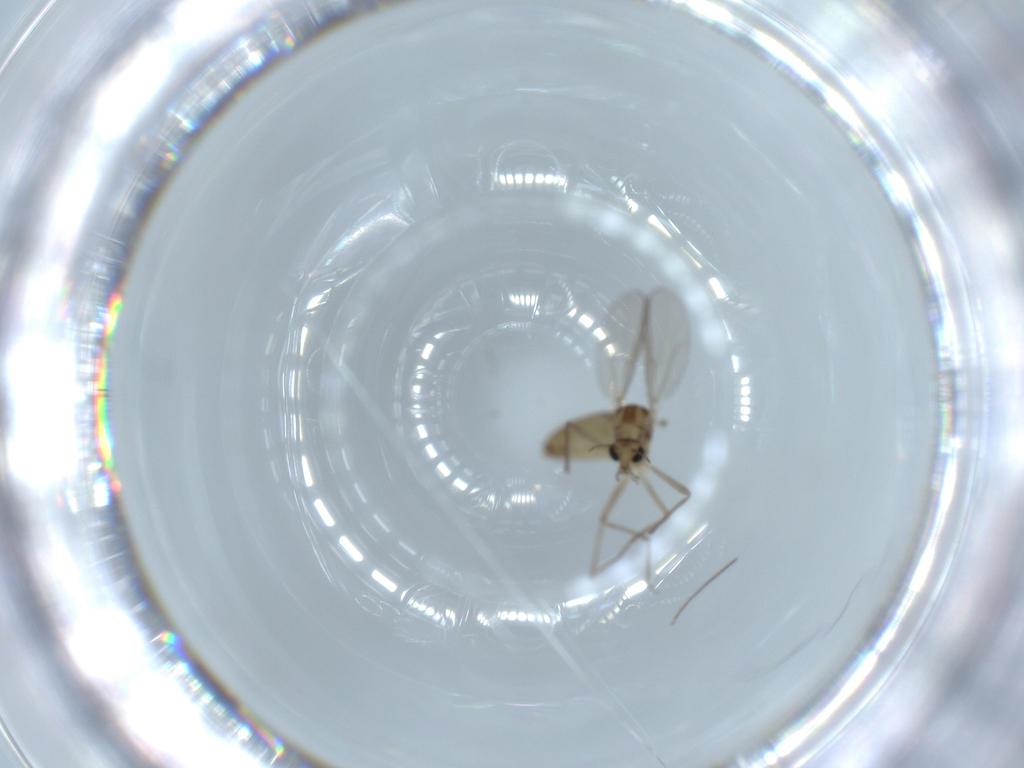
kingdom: Animalia
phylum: Arthropoda
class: Insecta
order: Diptera
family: Chironomidae
